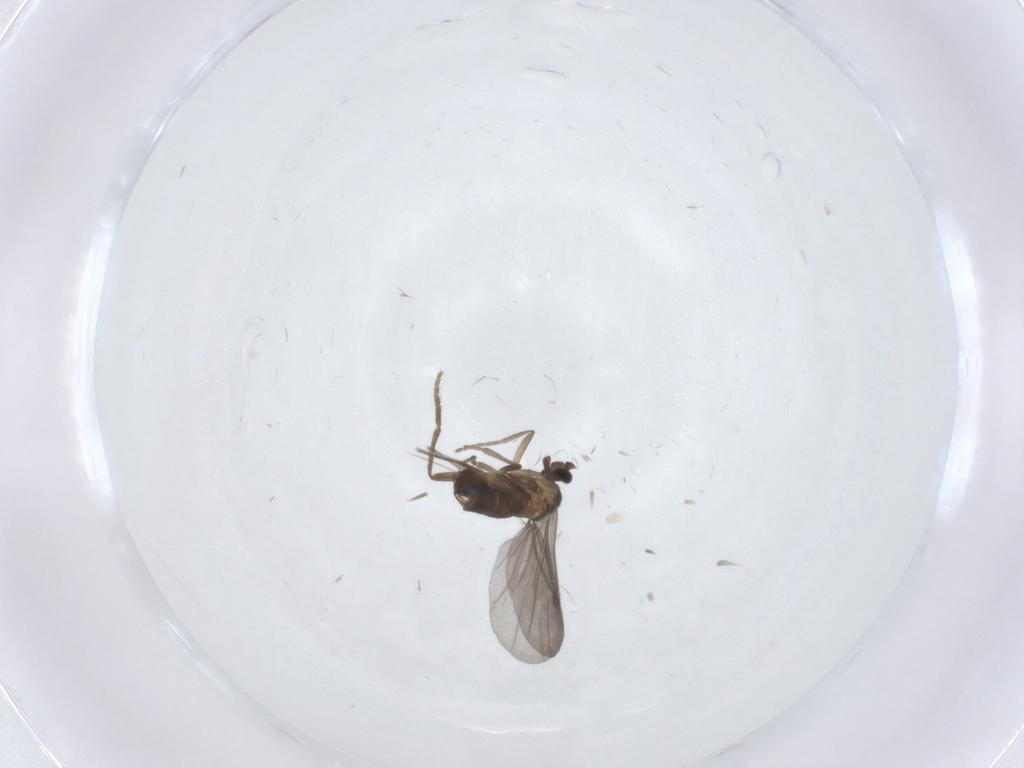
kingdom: Animalia
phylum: Arthropoda
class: Insecta
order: Diptera
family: Phoridae
